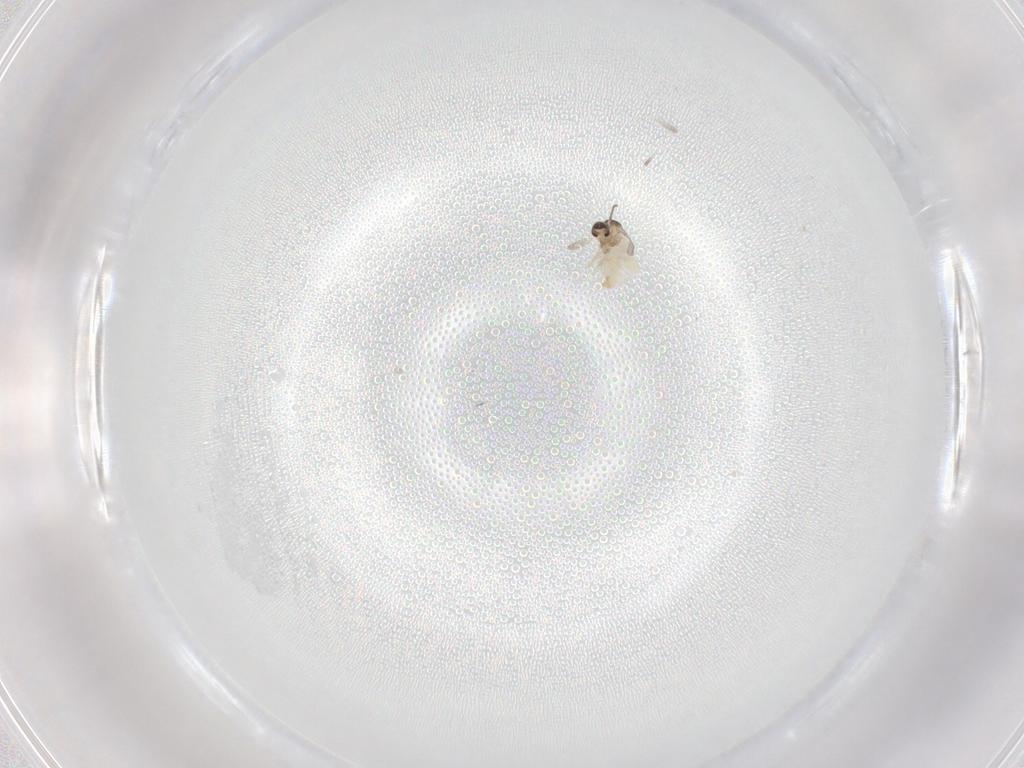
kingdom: Animalia
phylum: Arthropoda
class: Insecta
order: Diptera
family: Cecidomyiidae
